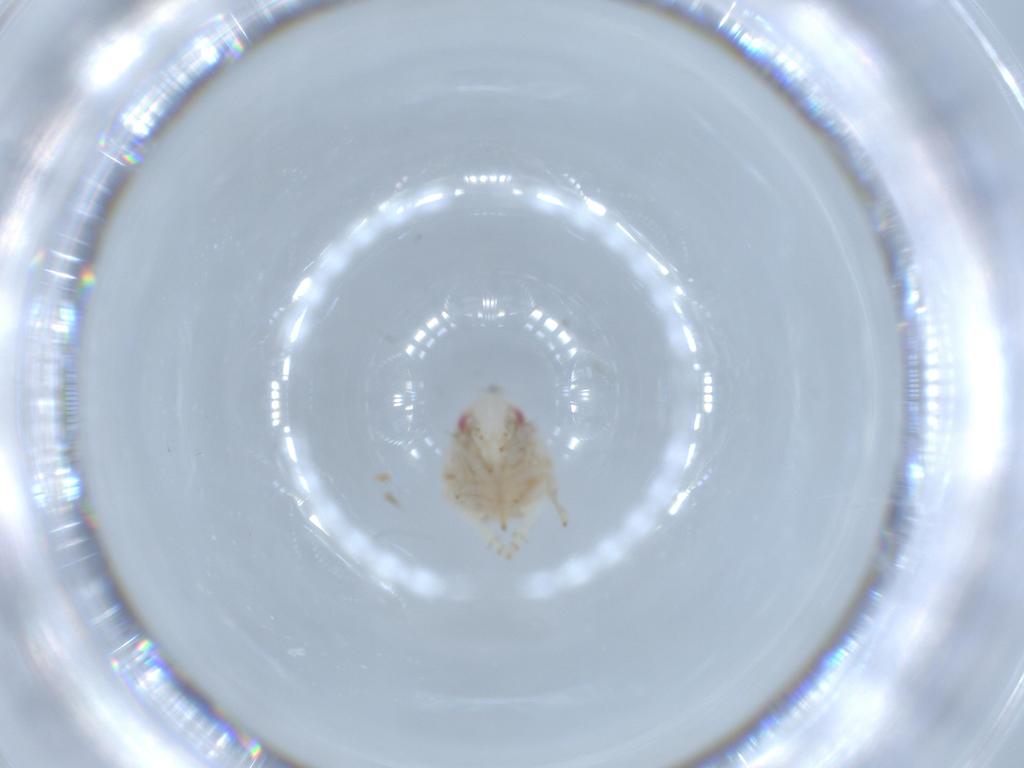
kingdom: Animalia
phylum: Arthropoda
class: Insecta
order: Hemiptera
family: Acanaloniidae
